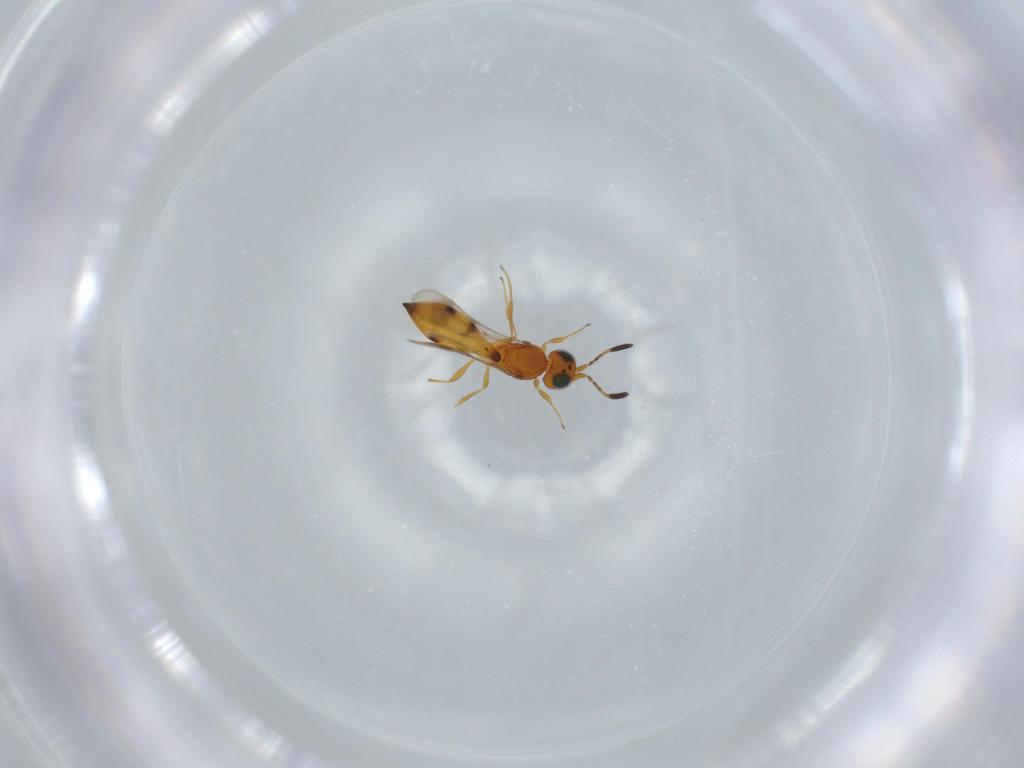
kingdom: Animalia
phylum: Arthropoda
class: Insecta
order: Hymenoptera
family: Scelionidae
